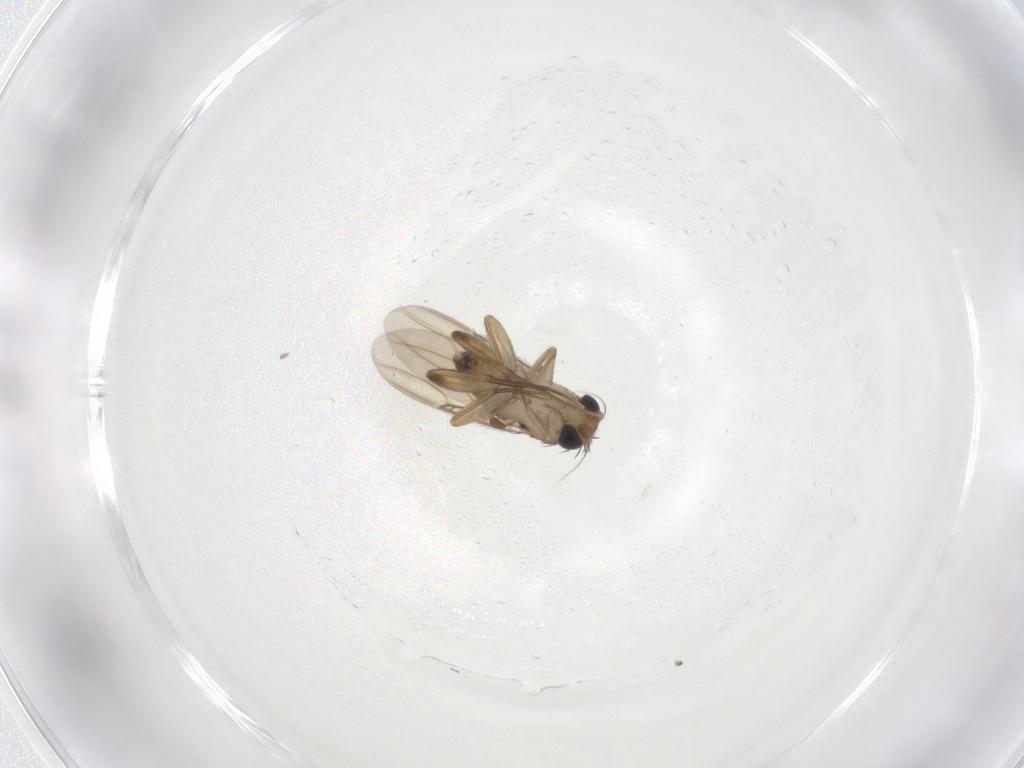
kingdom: Animalia
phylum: Arthropoda
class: Insecta
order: Diptera
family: Phoridae
